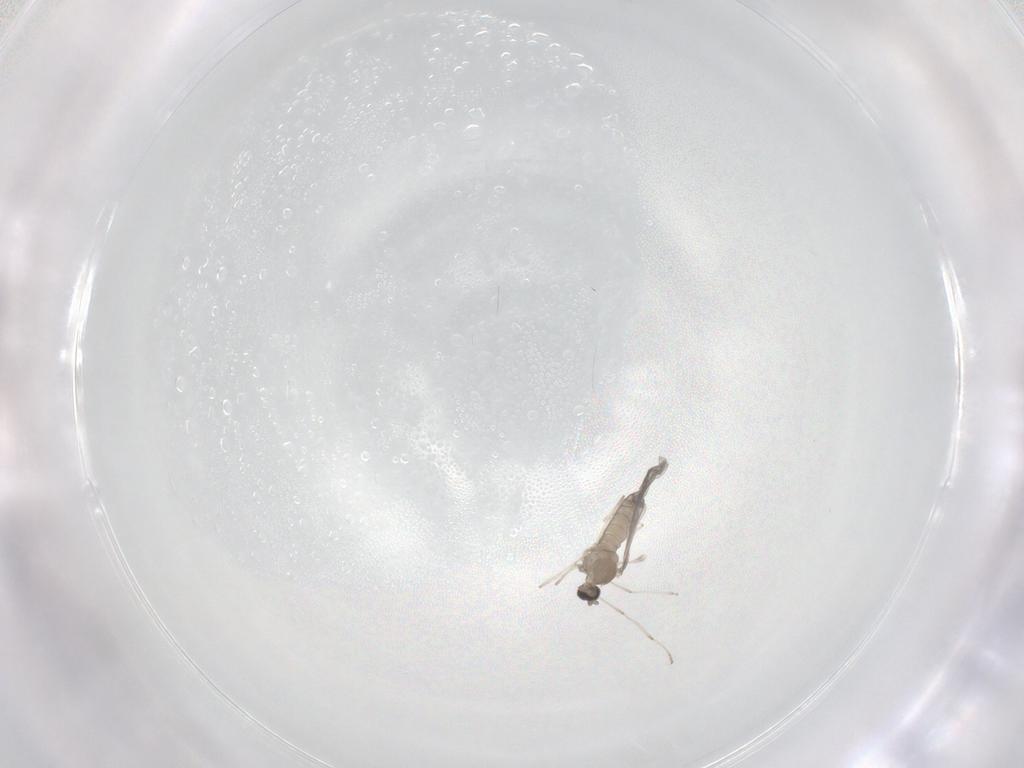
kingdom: Animalia
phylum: Arthropoda
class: Insecta
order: Diptera
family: Cecidomyiidae
